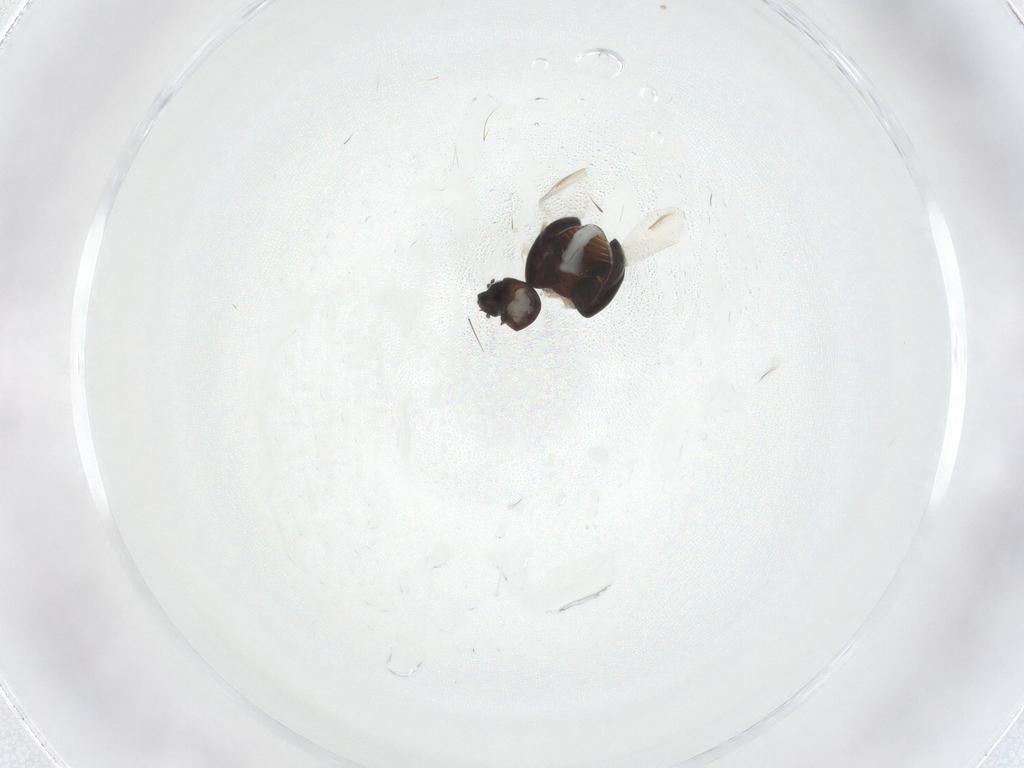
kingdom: Animalia
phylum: Arthropoda
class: Insecta
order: Coleoptera
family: Coccinellidae
